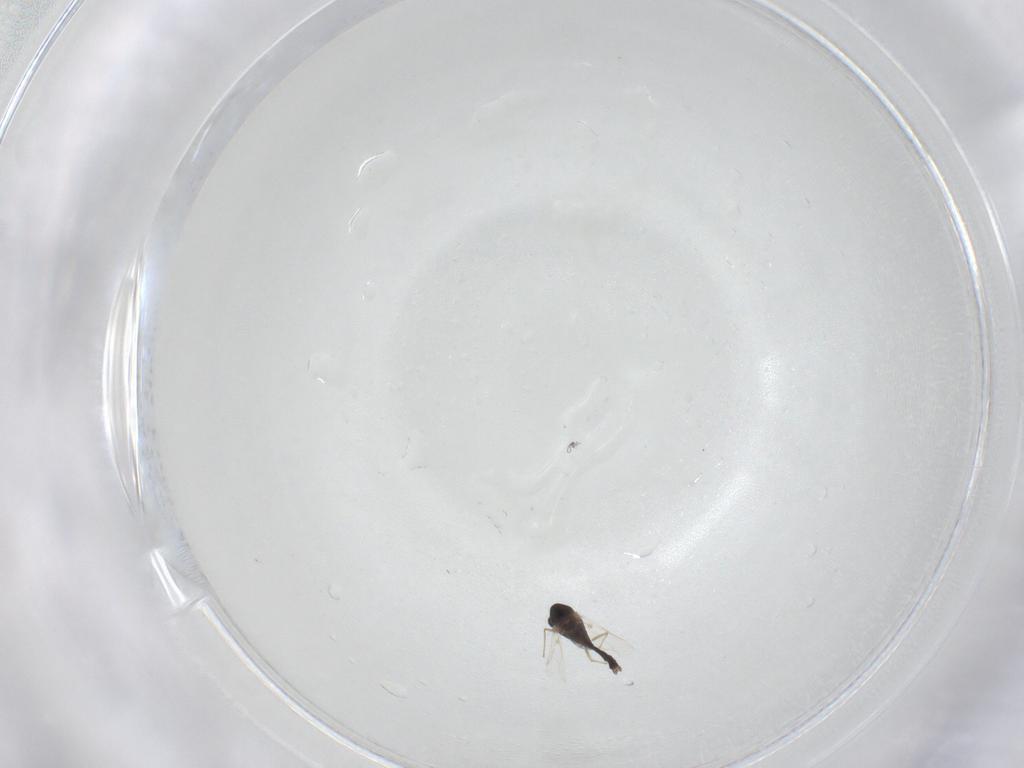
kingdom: Animalia
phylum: Arthropoda
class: Insecta
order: Diptera
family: Chironomidae
